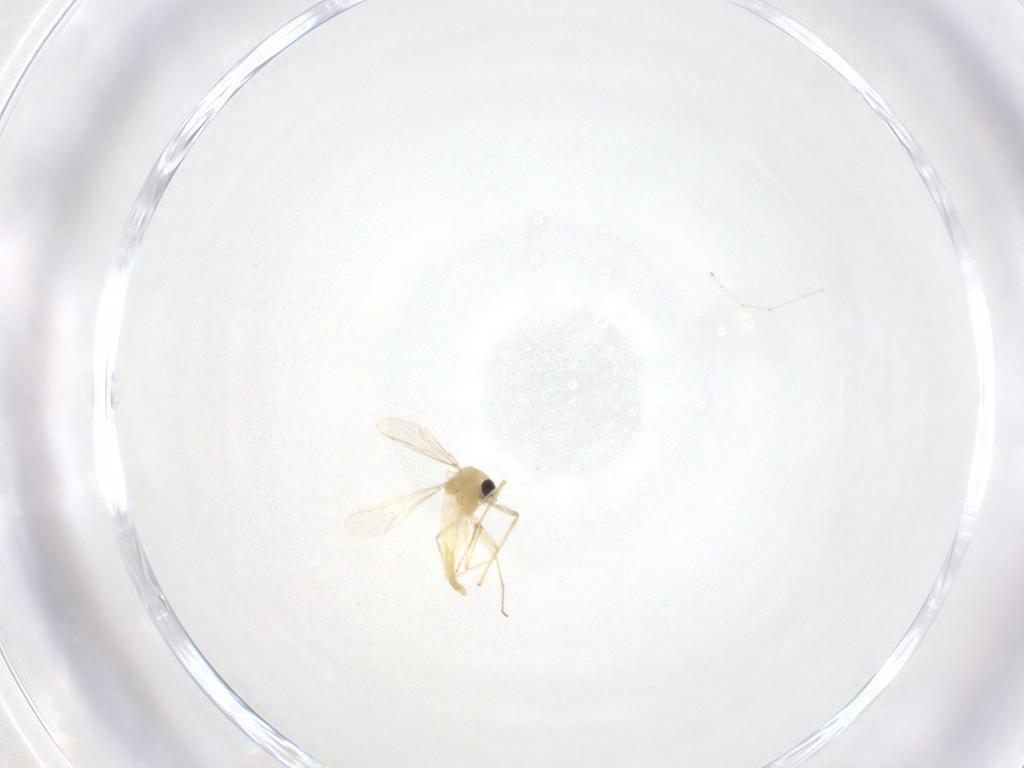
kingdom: Animalia
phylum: Arthropoda
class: Insecta
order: Diptera
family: Chironomidae
